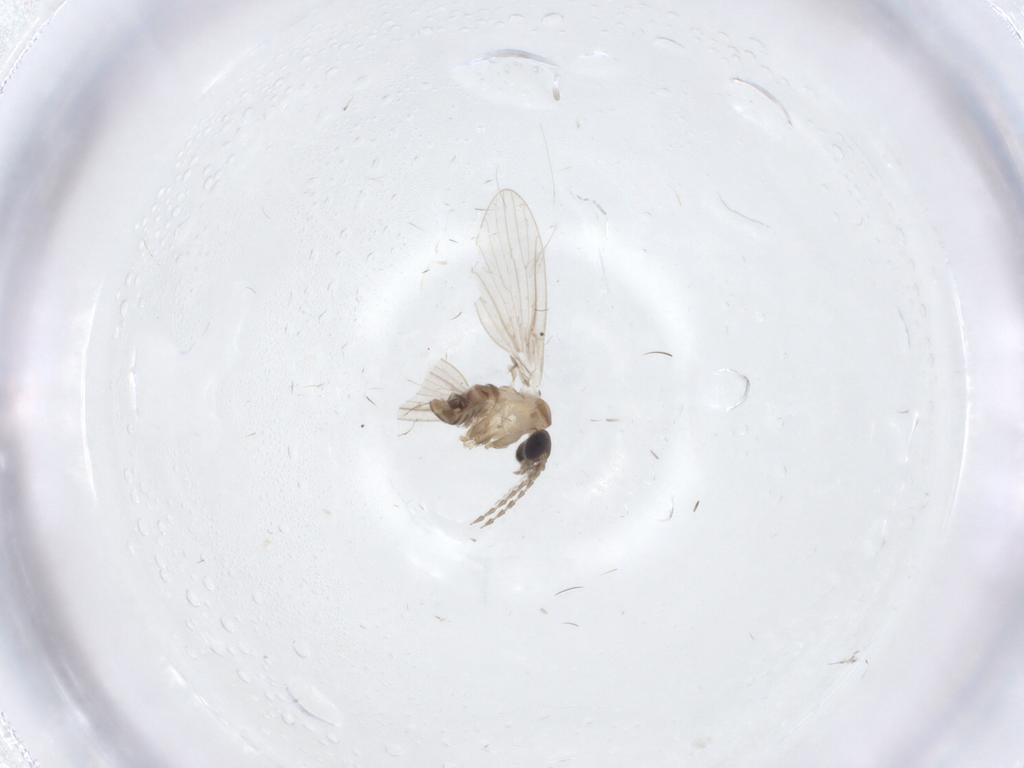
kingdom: Animalia
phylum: Arthropoda
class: Insecta
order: Diptera
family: Chironomidae
